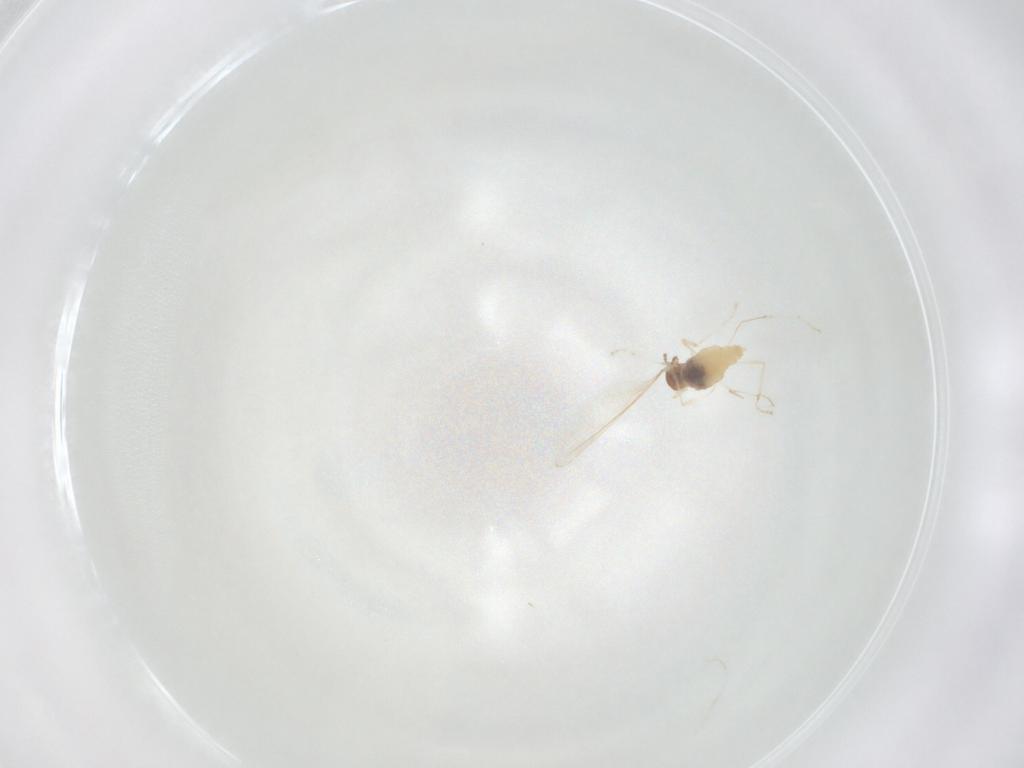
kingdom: Animalia
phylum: Arthropoda
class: Insecta
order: Diptera
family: Cecidomyiidae
